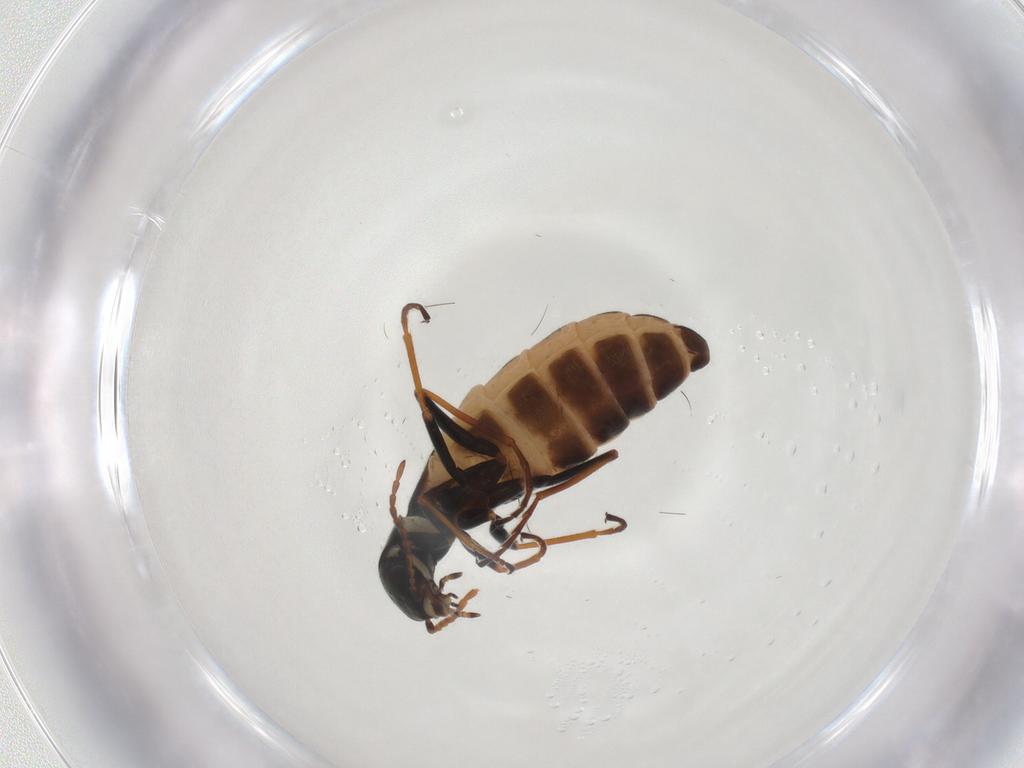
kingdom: Animalia
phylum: Arthropoda
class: Insecta
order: Coleoptera
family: Melyridae
